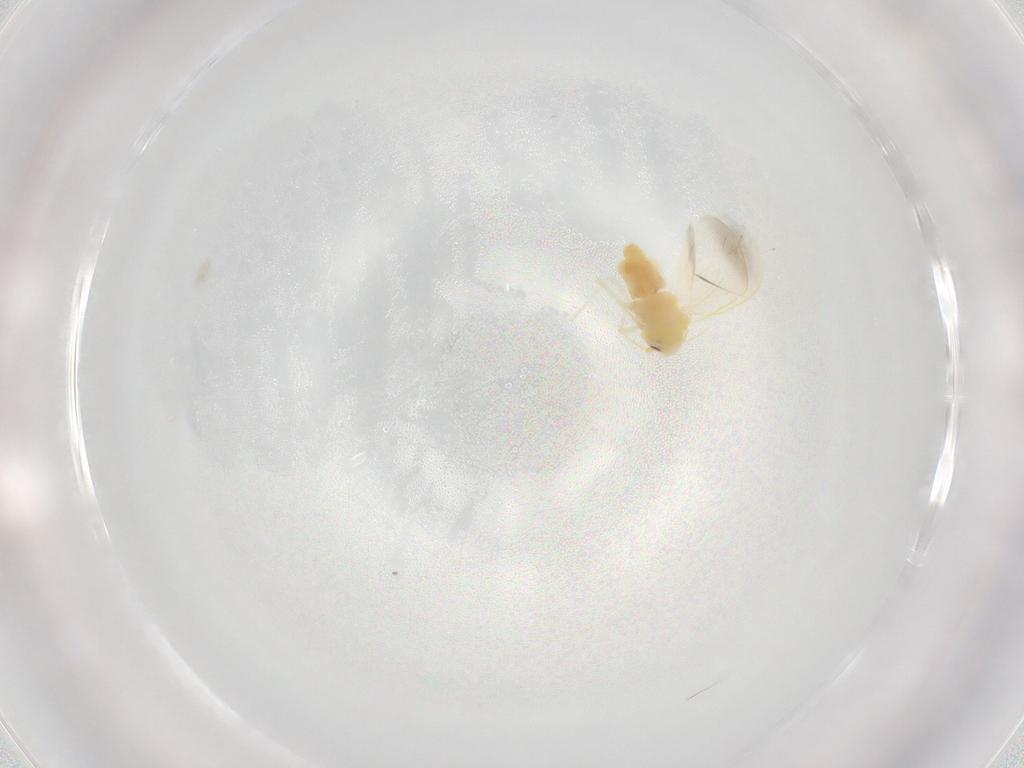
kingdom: Animalia
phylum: Arthropoda
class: Insecta
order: Hemiptera
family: Aleyrodidae
